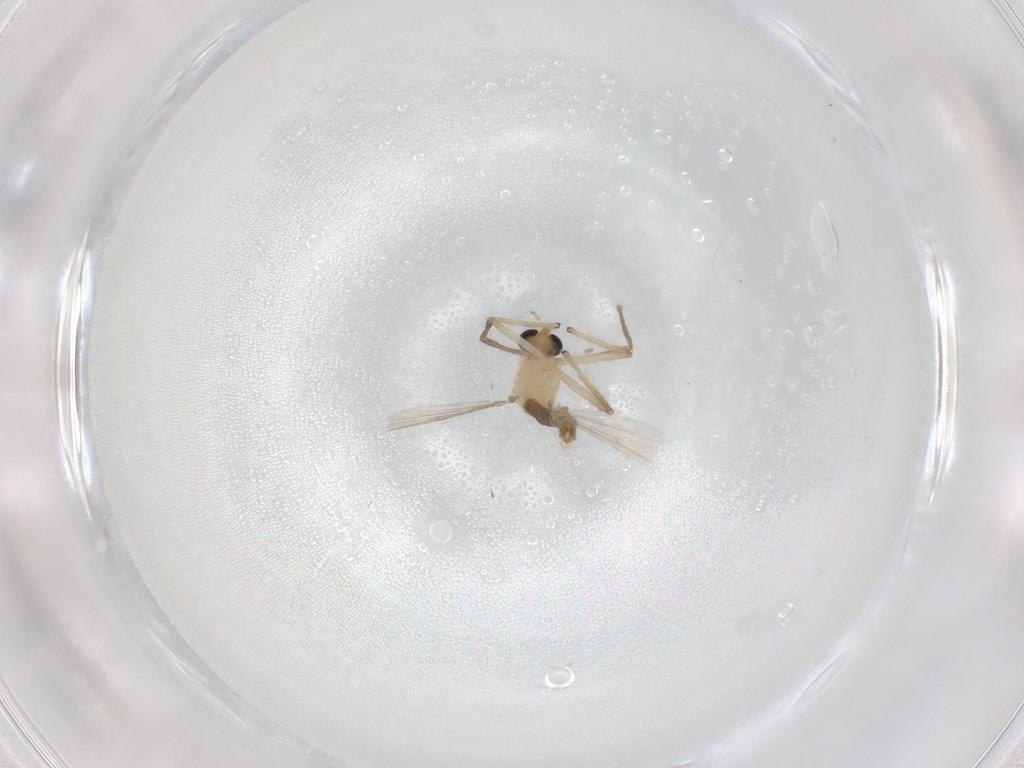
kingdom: Animalia
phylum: Arthropoda
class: Insecta
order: Diptera
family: Chironomidae
